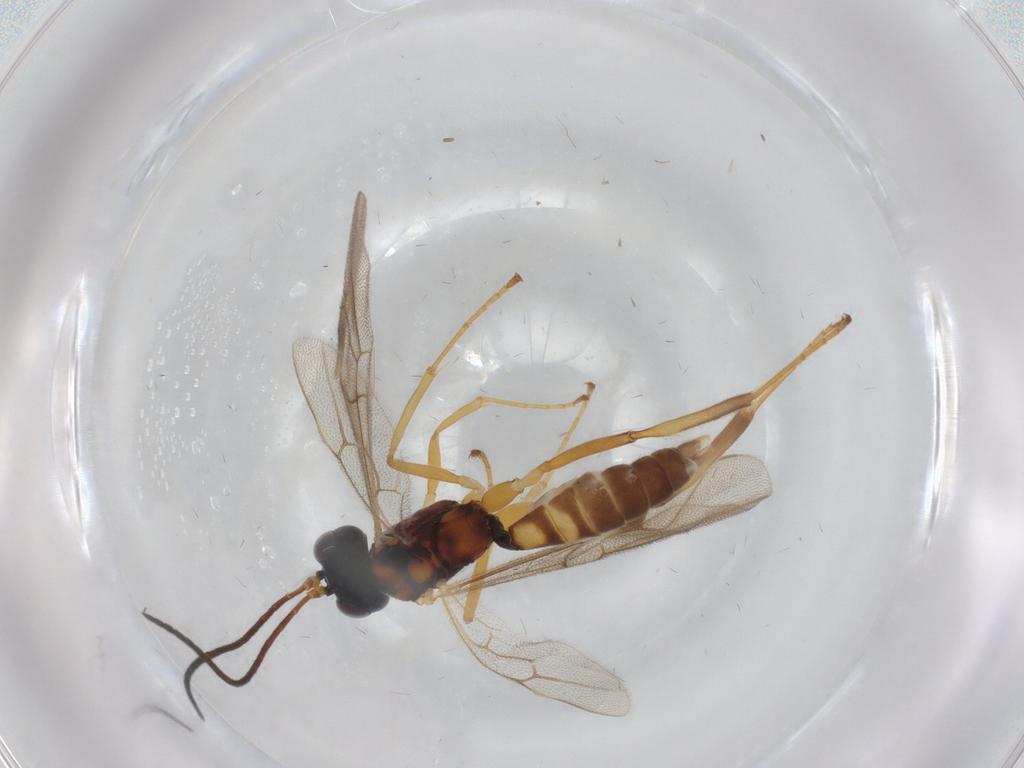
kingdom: Animalia
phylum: Arthropoda
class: Insecta
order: Hymenoptera
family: Ichneumonidae
